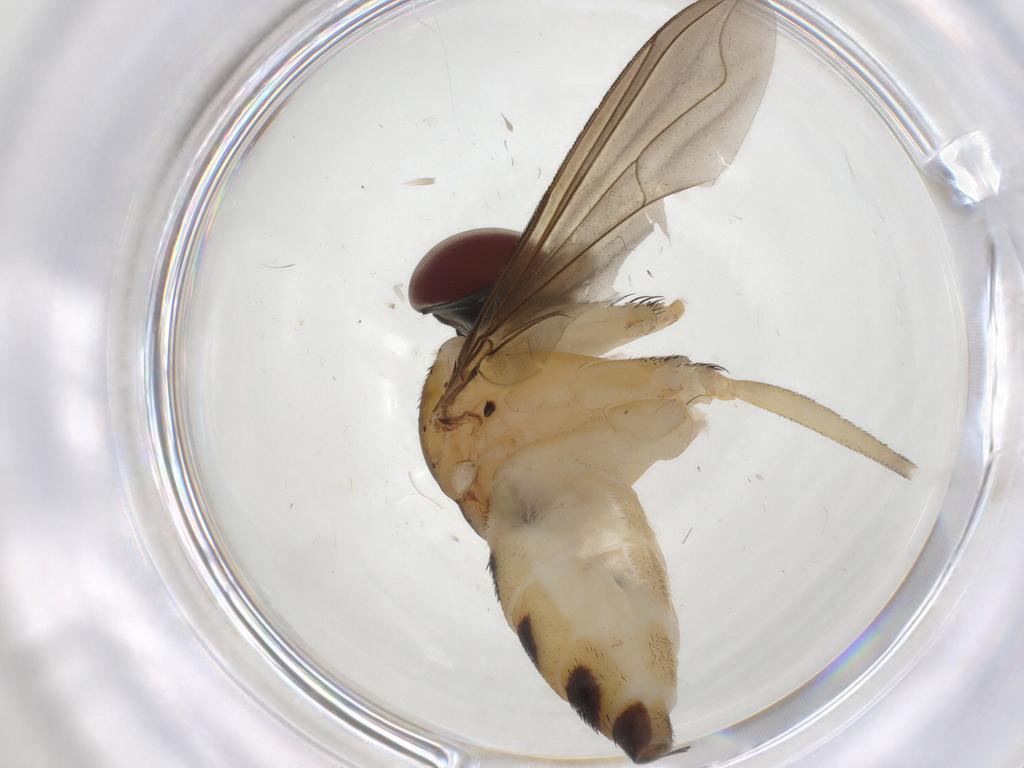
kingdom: Animalia
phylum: Arthropoda
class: Insecta
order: Diptera
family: Dolichopodidae
